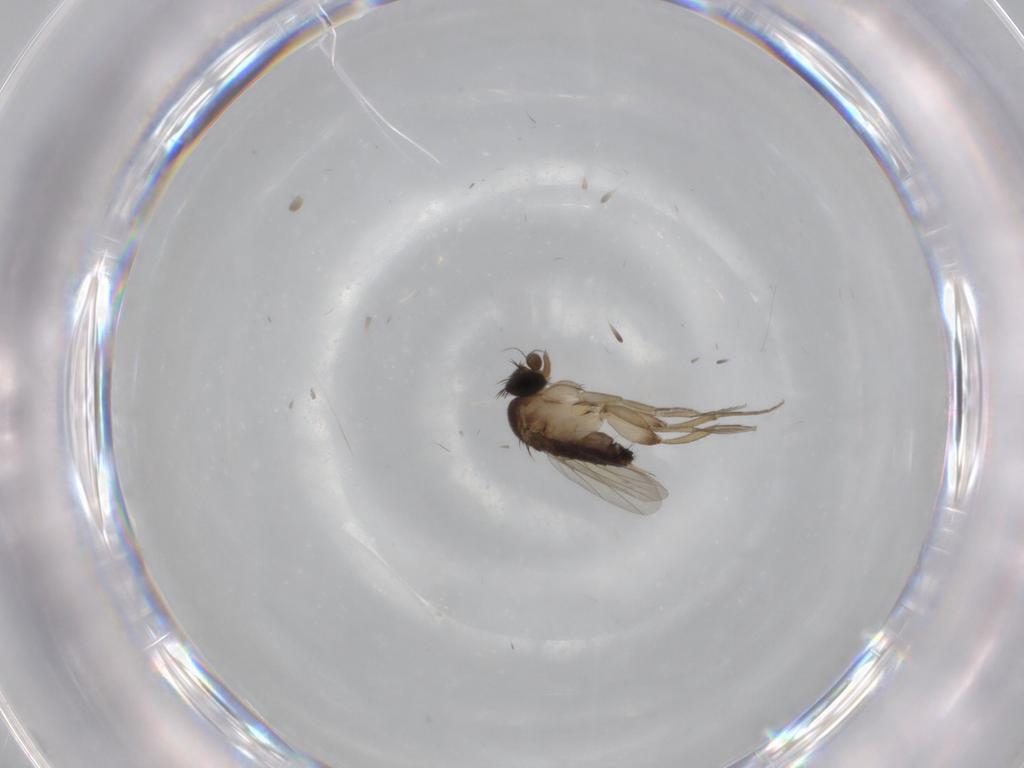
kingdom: Animalia
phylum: Arthropoda
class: Insecta
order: Diptera
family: Phoridae
